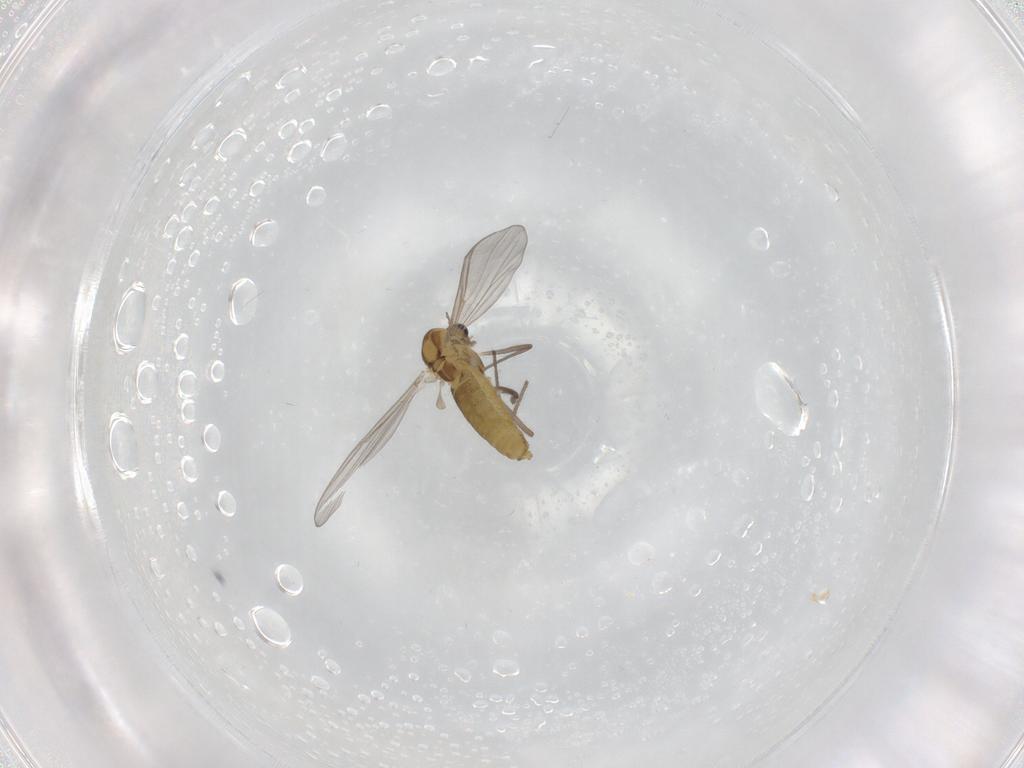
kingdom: Animalia
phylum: Arthropoda
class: Insecta
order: Diptera
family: Chironomidae
